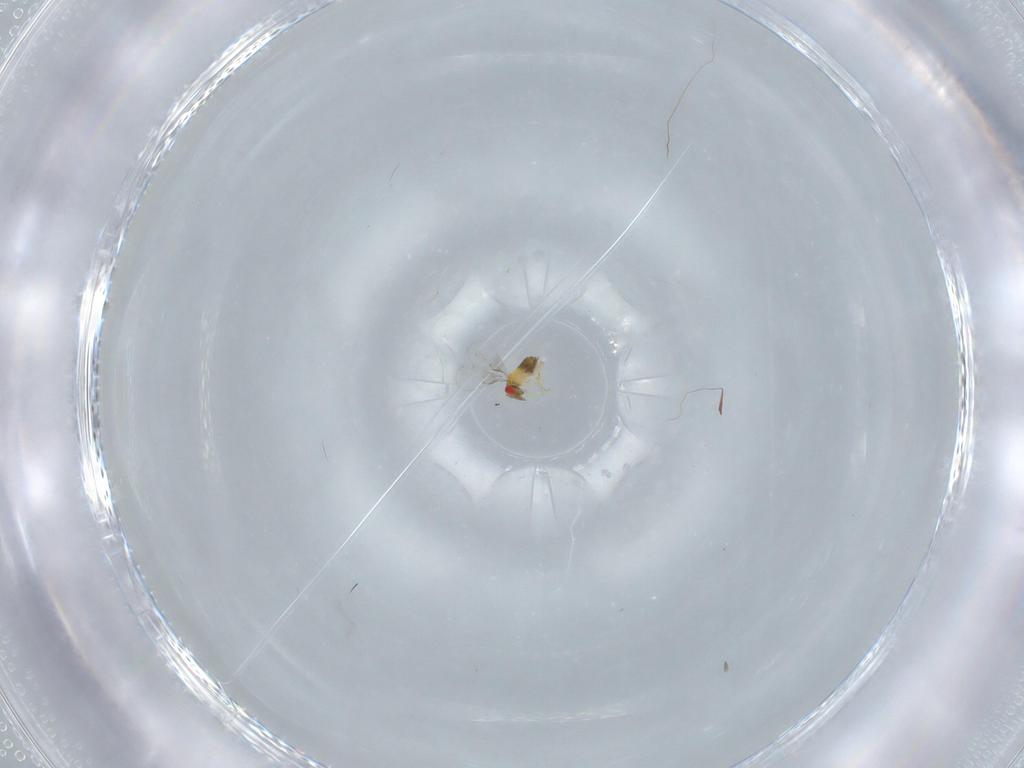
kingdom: Animalia
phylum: Arthropoda
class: Insecta
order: Hymenoptera
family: Trichogrammatidae
